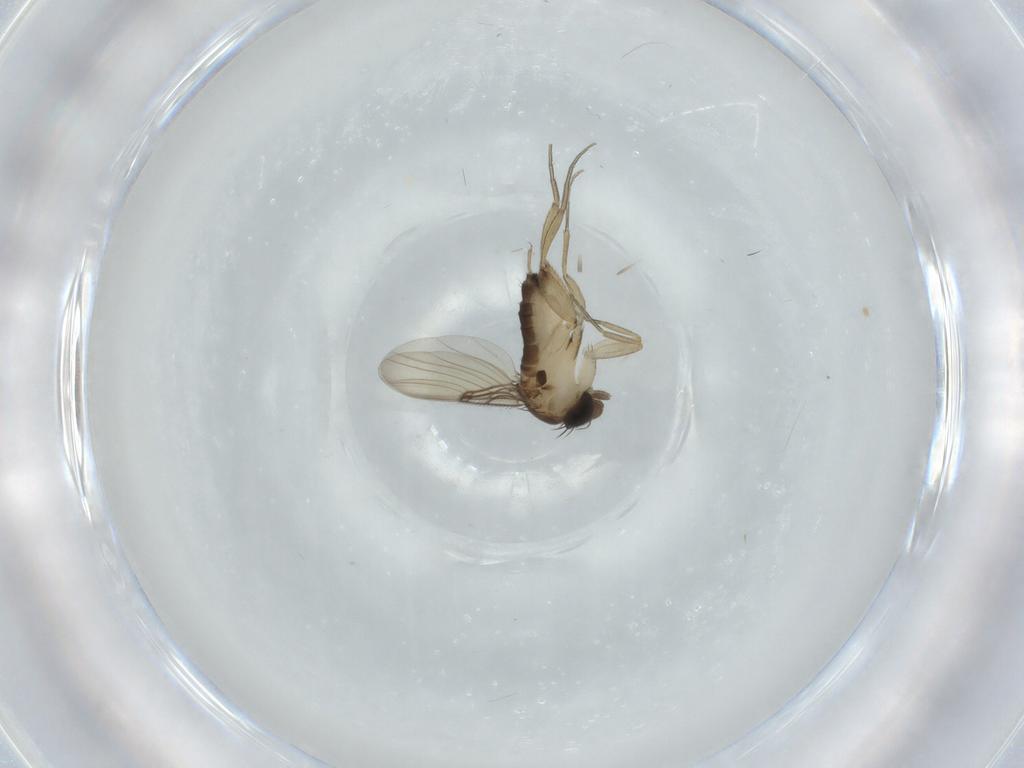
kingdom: Animalia
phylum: Arthropoda
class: Insecta
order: Diptera
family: Phoridae
